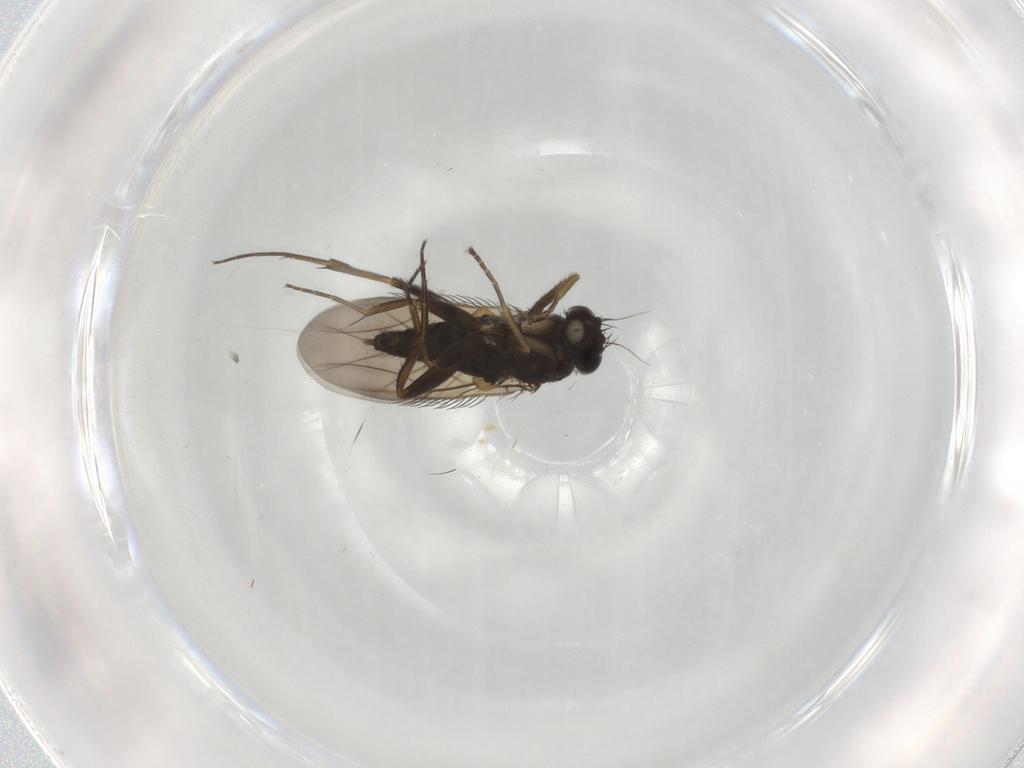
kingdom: Animalia
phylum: Arthropoda
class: Insecta
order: Diptera
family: Phoridae
